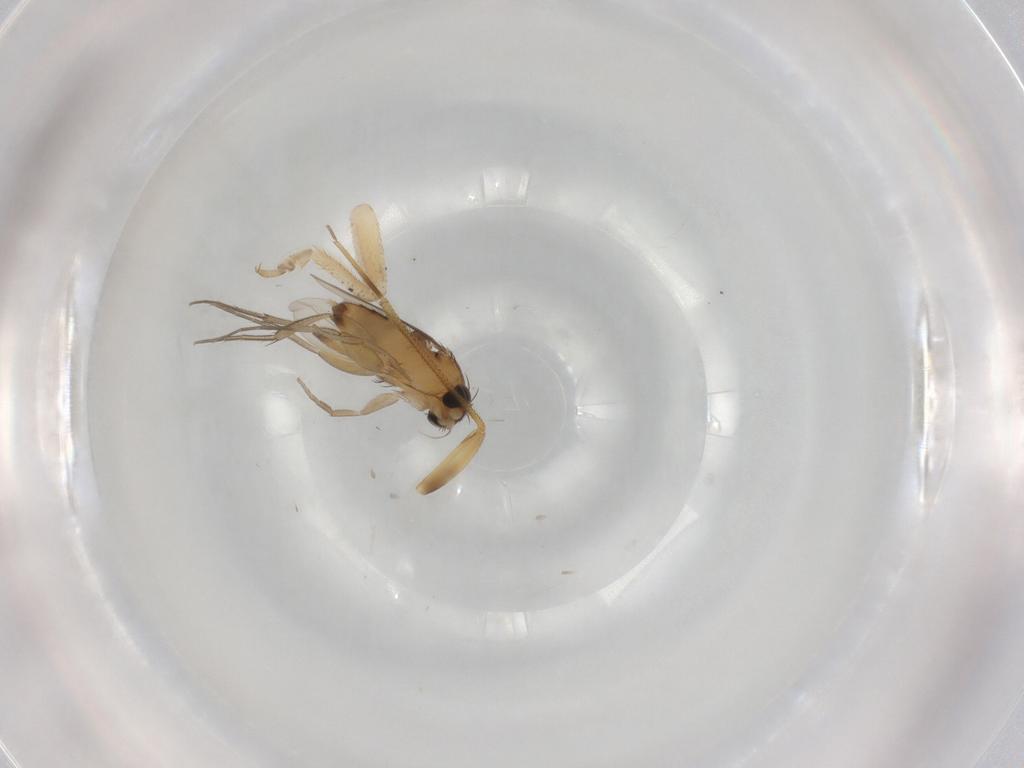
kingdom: Animalia
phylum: Arthropoda
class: Insecta
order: Diptera
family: Phoridae
